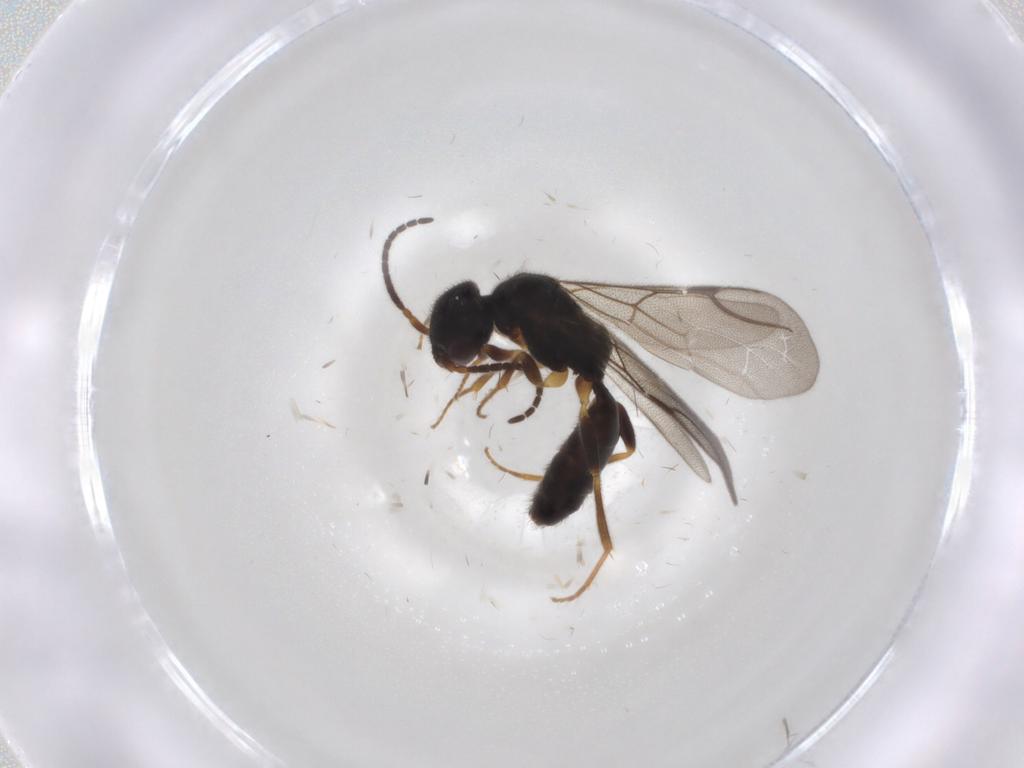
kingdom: Animalia
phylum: Arthropoda
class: Insecta
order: Hymenoptera
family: Bethylidae
